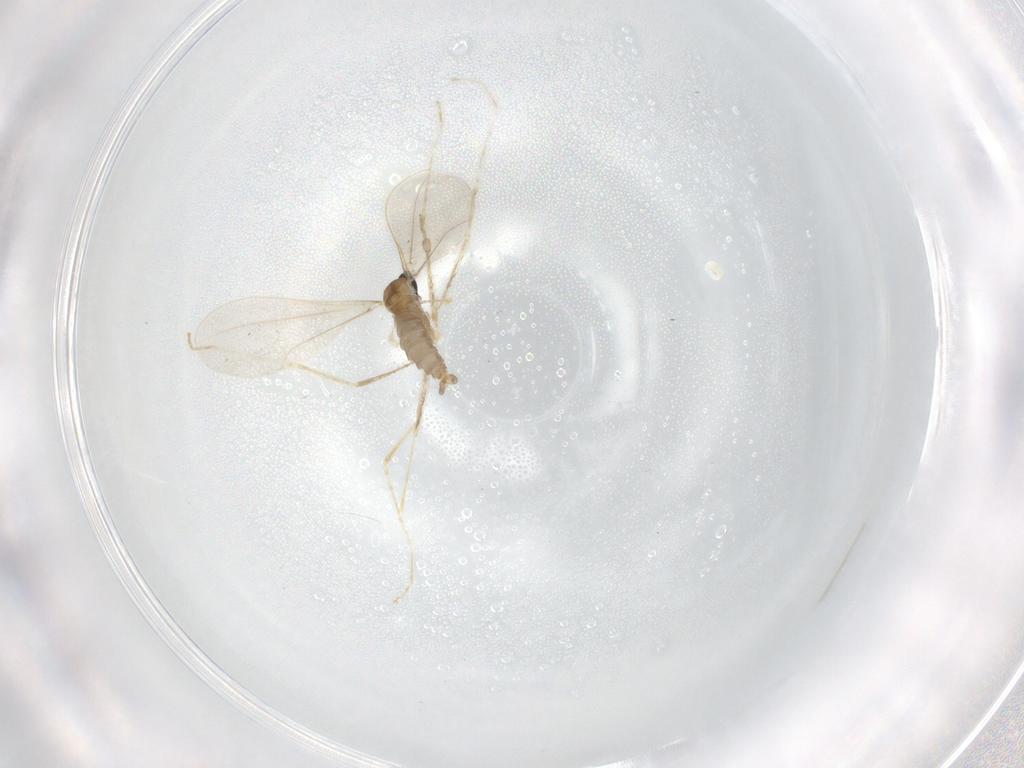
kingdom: Animalia
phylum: Arthropoda
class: Insecta
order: Diptera
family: Cecidomyiidae
